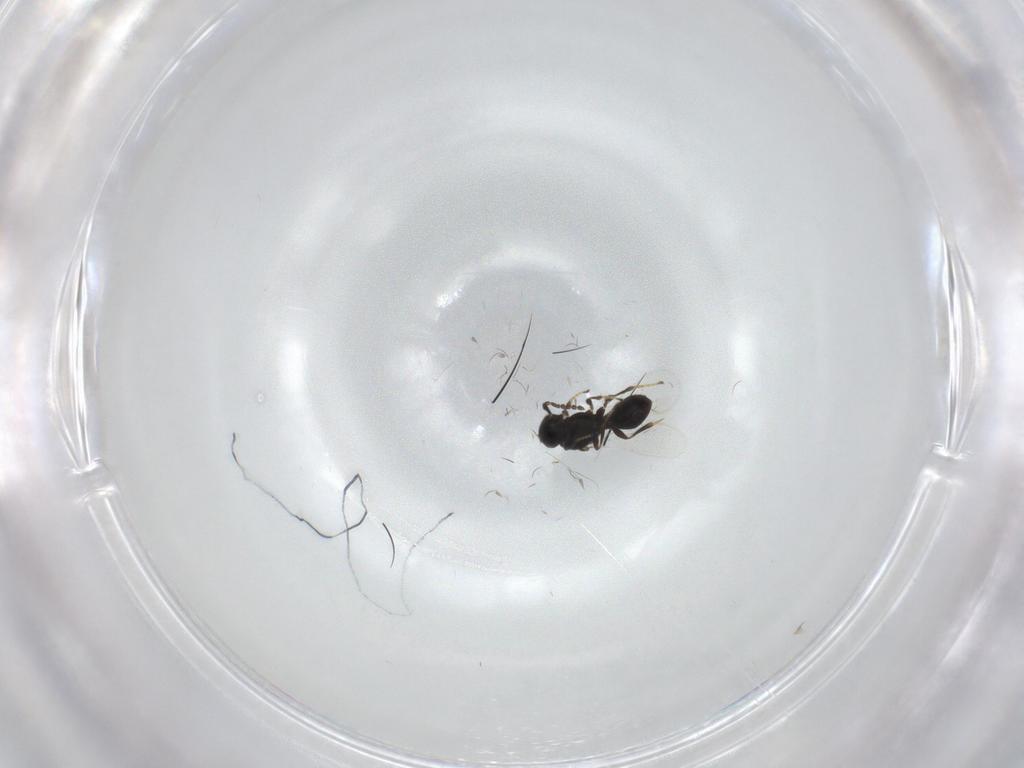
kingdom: Animalia
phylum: Arthropoda
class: Insecta
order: Hymenoptera
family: Platygastridae
